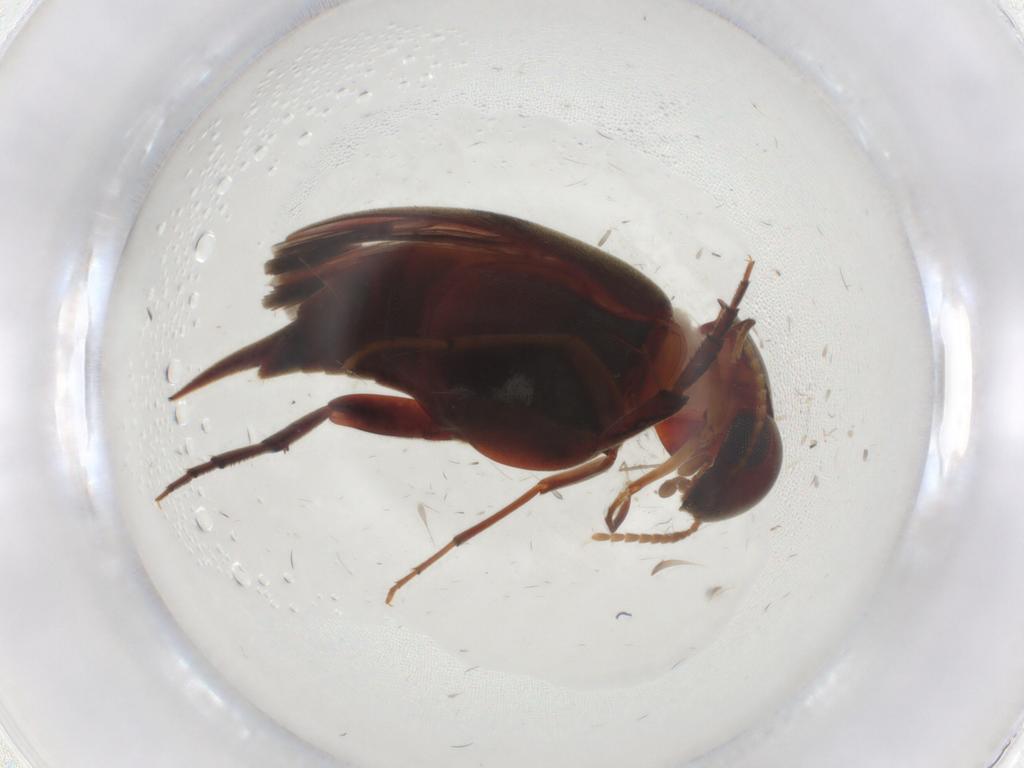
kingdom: Animalia
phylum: Arthropoda
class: Insecta
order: Coleoptera
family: Mordellidae
